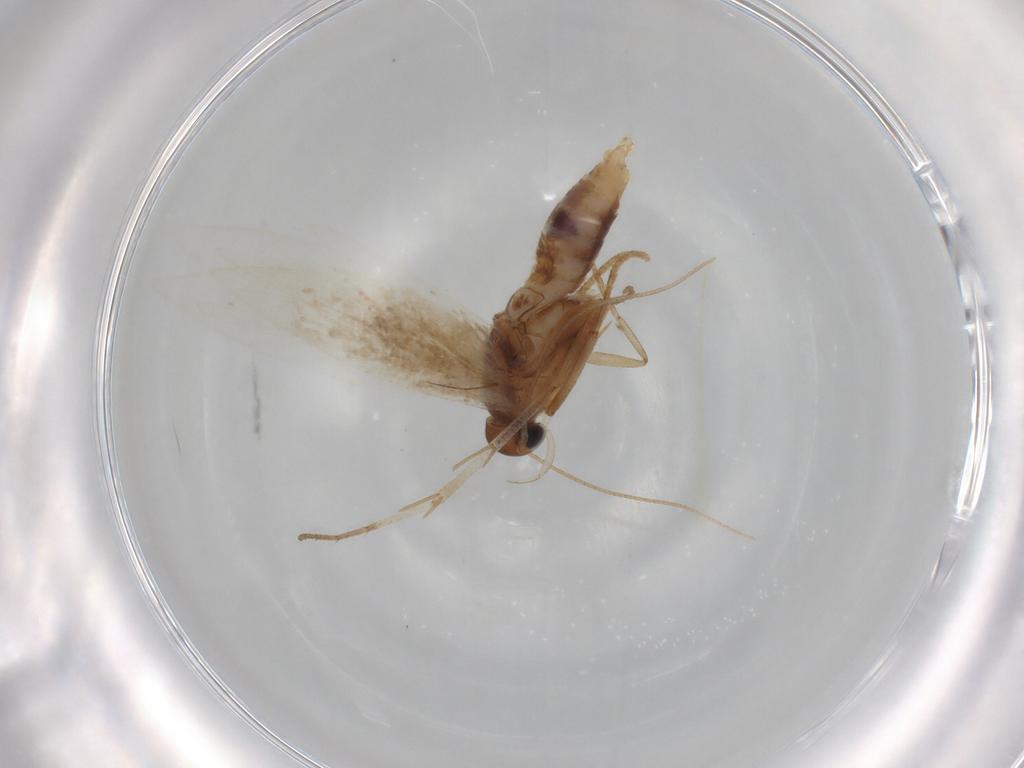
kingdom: Animalia
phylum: Arthropoda
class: Insecta
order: Lepidoptera
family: Gelechiidae
